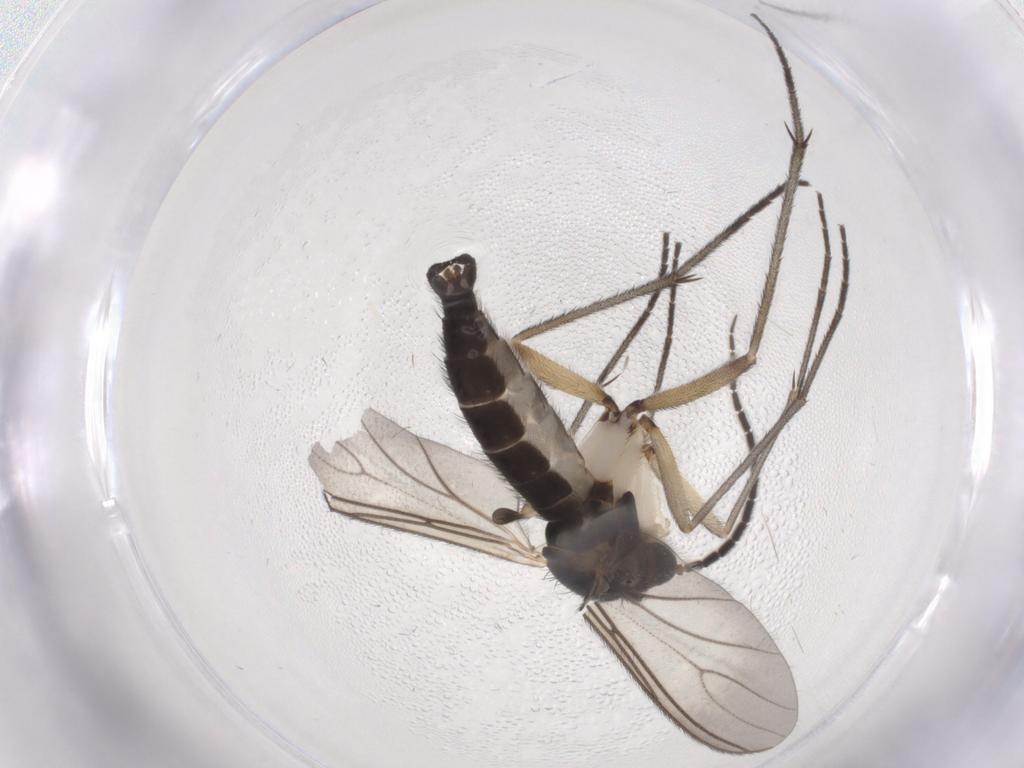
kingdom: Animalia
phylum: Arthropoda
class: Insecta
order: Diptera
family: Sciaridae
